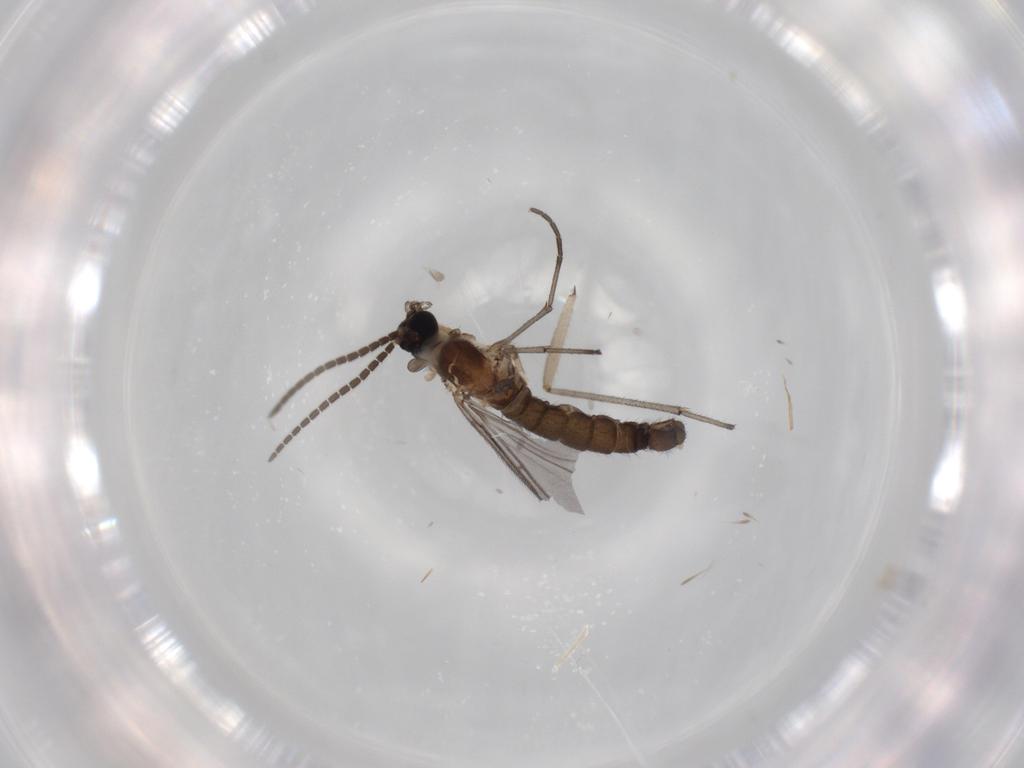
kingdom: Animalia
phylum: Arthropoda
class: Insecta
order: Diptera
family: Sciaridae
